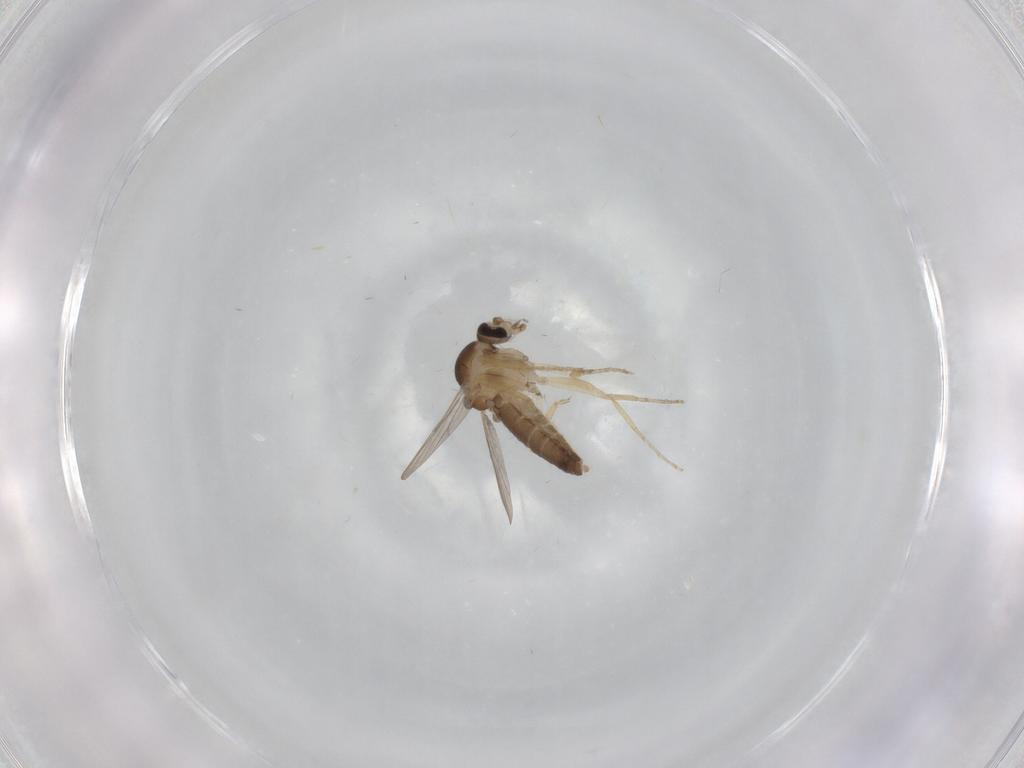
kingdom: Animalia
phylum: Arthropoda
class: Insecta
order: Diptera
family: Ceratopogonidae
